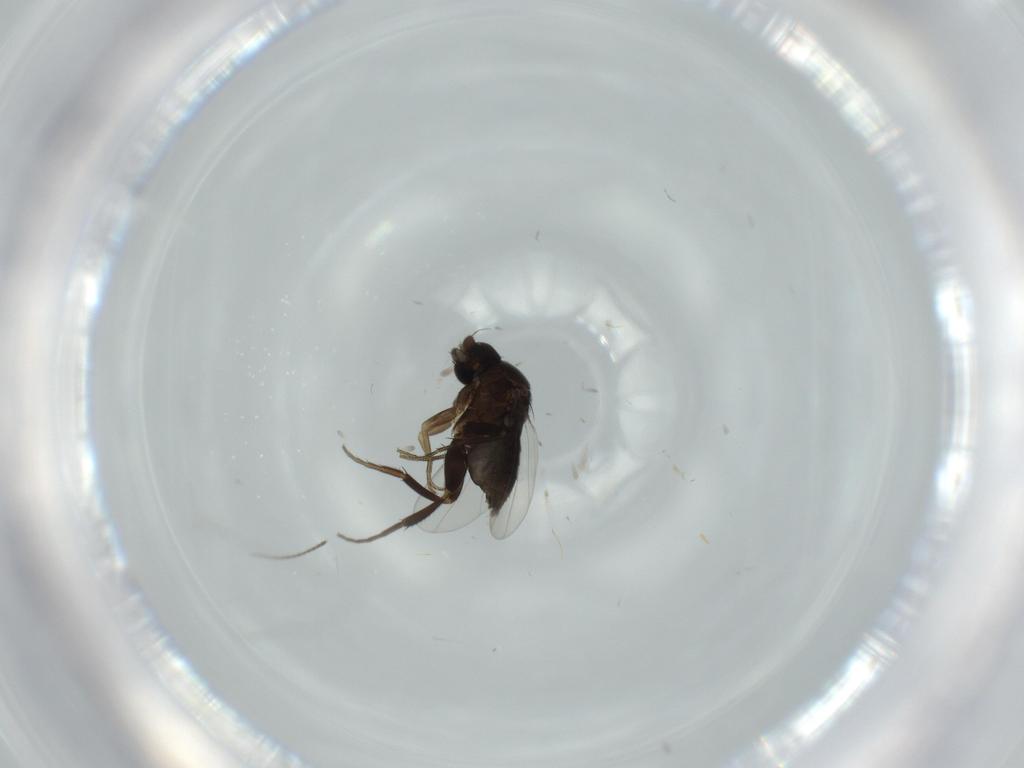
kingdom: Animalia
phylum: Arthropoda
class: Insecta
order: Diptera
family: Phoridae
